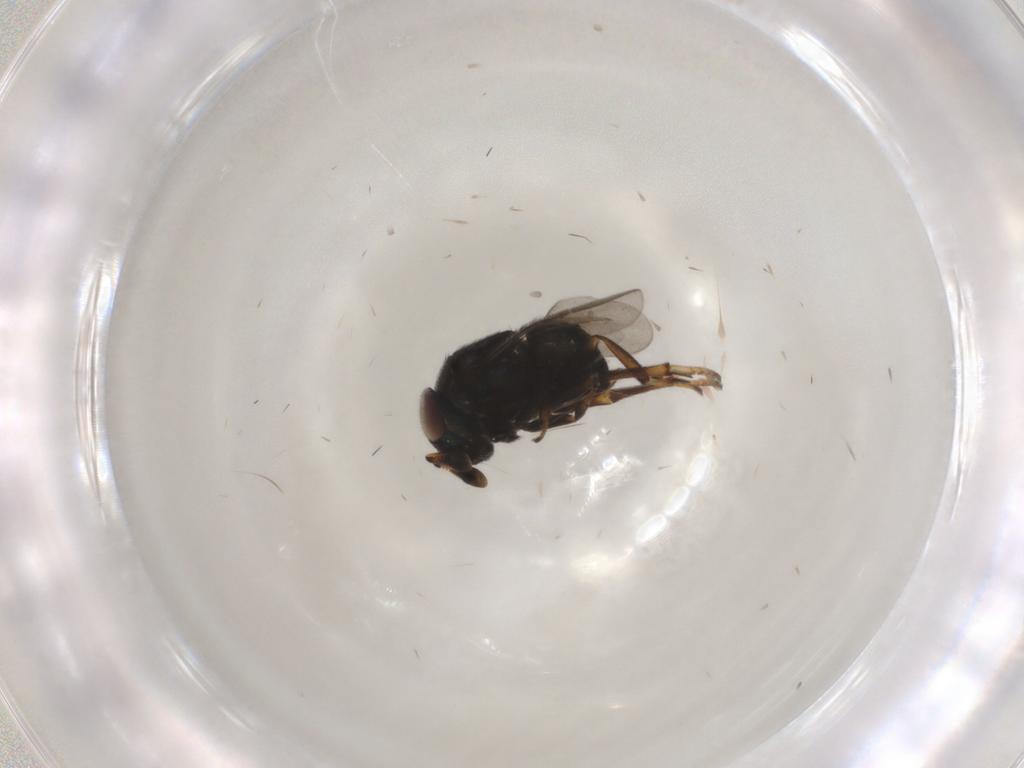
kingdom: Animalia
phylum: Arthropoda
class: Insecta
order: Hymenoptera
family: Encyrtidae
